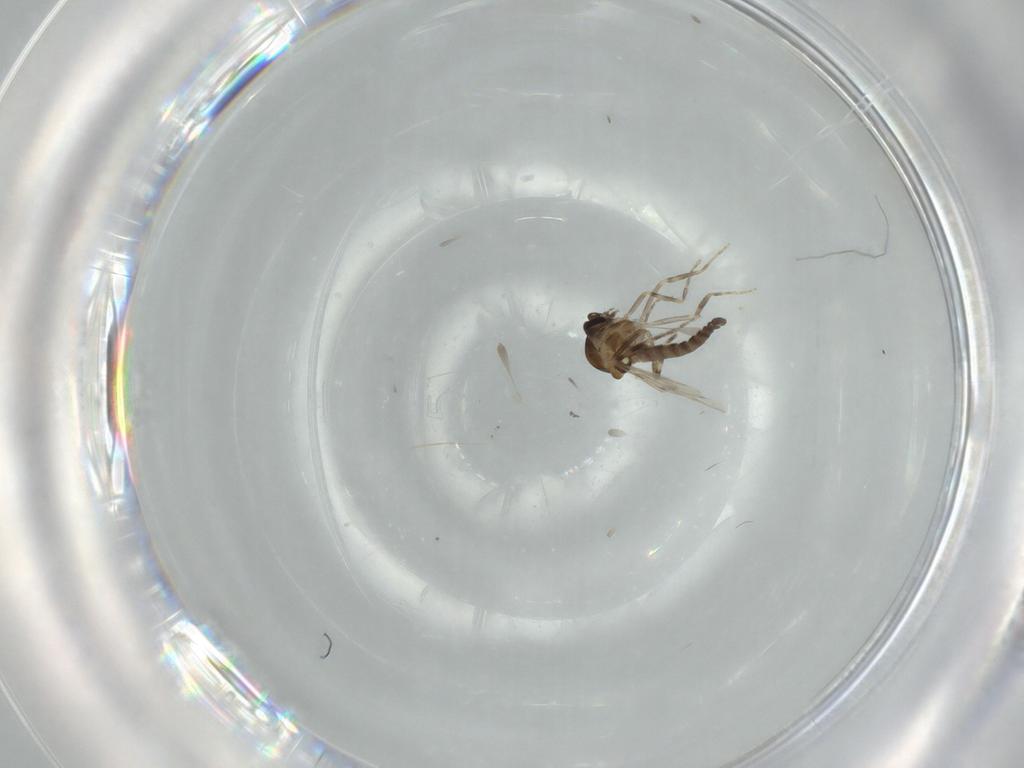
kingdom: Animalia
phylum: Arthropoda
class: Insecta
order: Diptera
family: Ceratopogonidae
